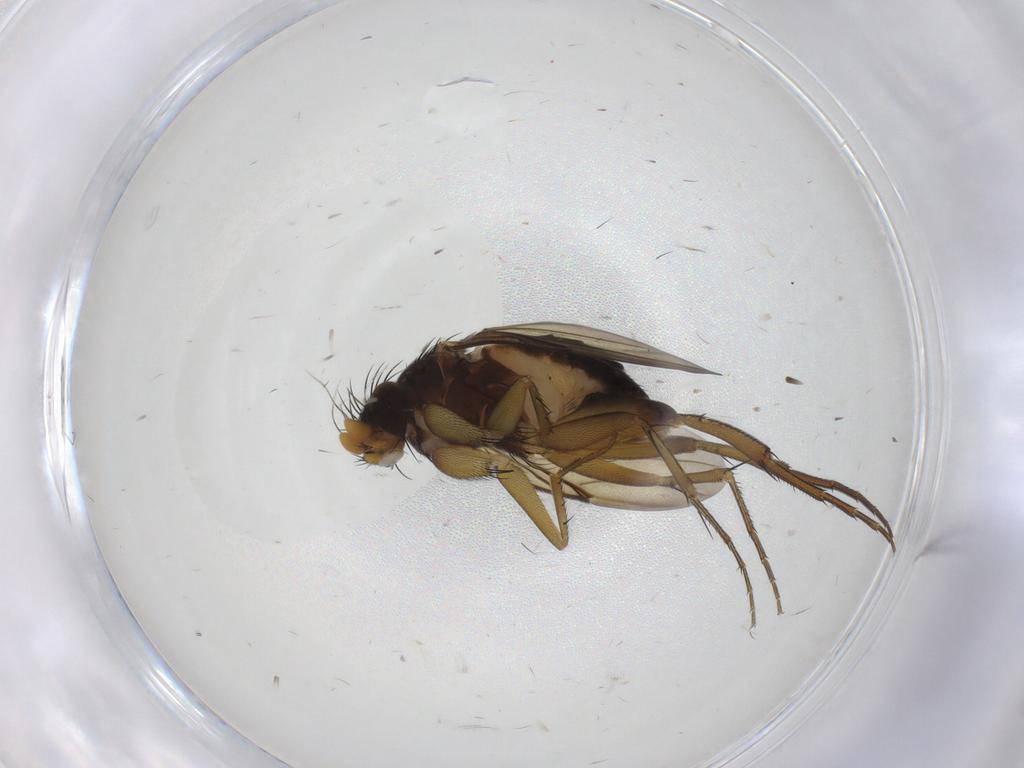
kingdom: Animalia
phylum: Arthropoda
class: Insecta
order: Diptera
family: Phoridae
